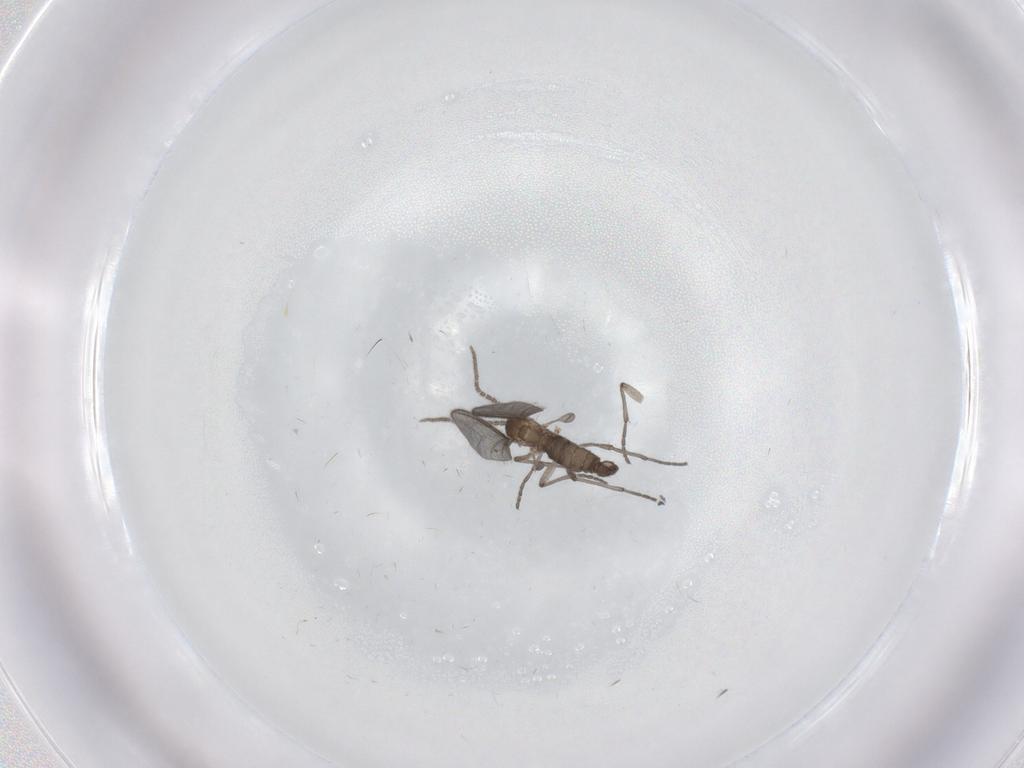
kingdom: Animalia
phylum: Arthropoda
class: Insecta
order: Diptera
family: Sciaridae
